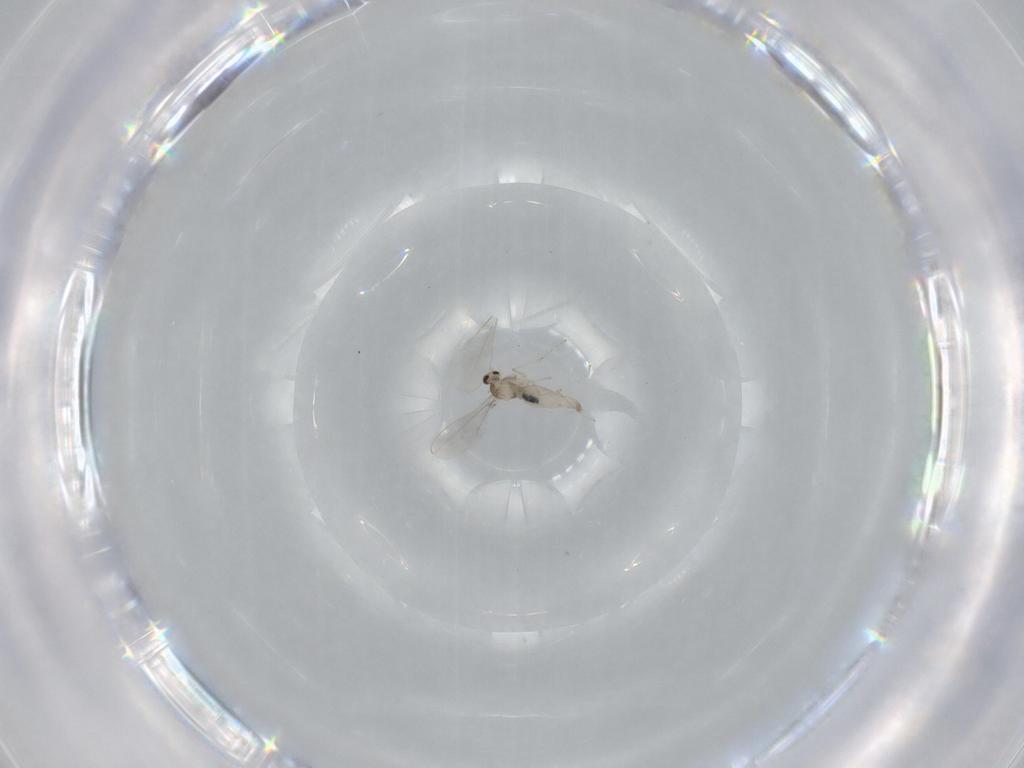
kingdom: Animalia
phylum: Arthropoda
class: Insecta
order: Diptera
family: Cecidomyiidae
